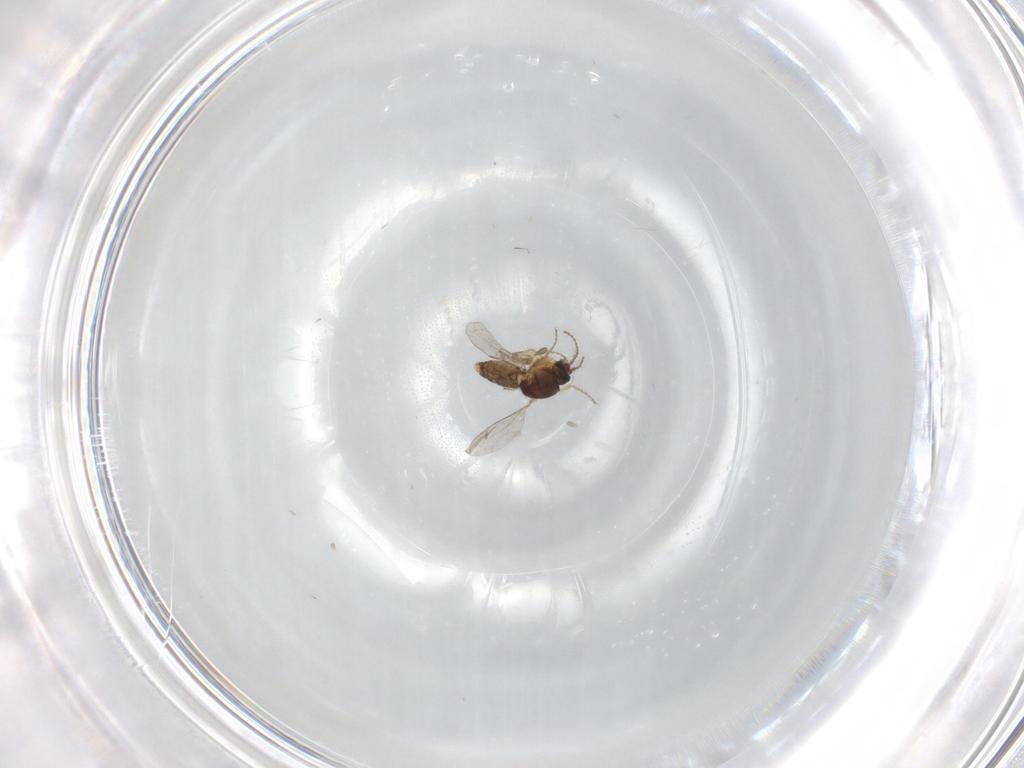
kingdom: Animalia
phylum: Arthropoda
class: Insecta
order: Diptera
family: Ceratopogonidae
